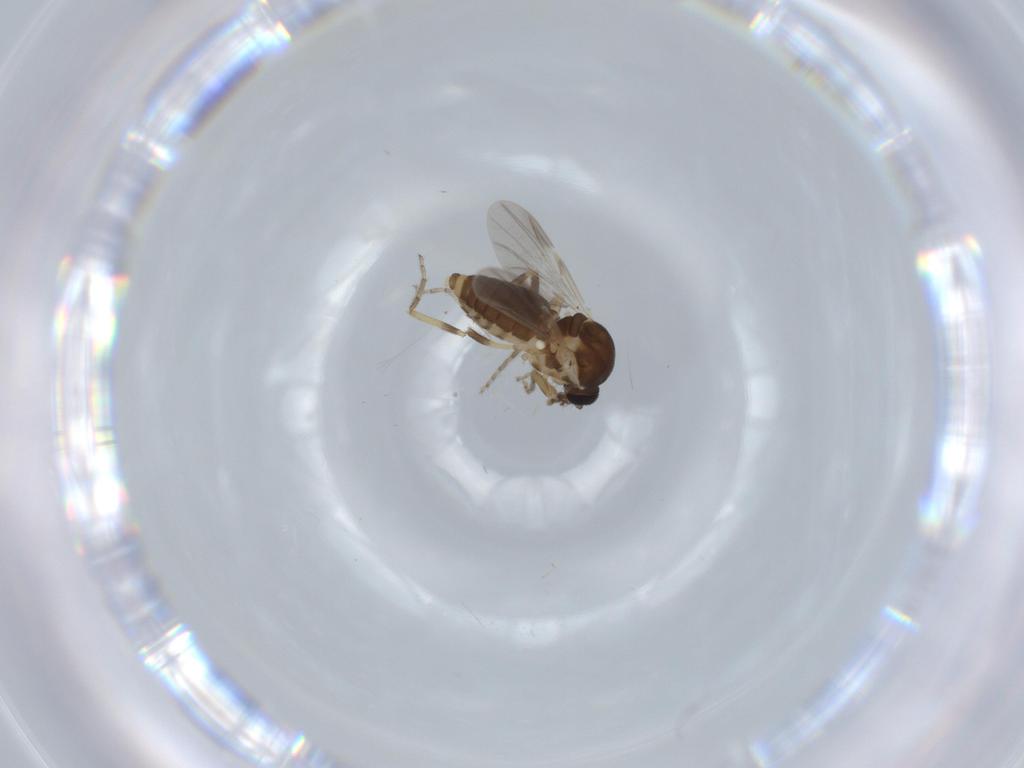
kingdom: Animalia
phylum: Arthropoda
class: Insecta
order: Diptera
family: Ceratopogonidae
